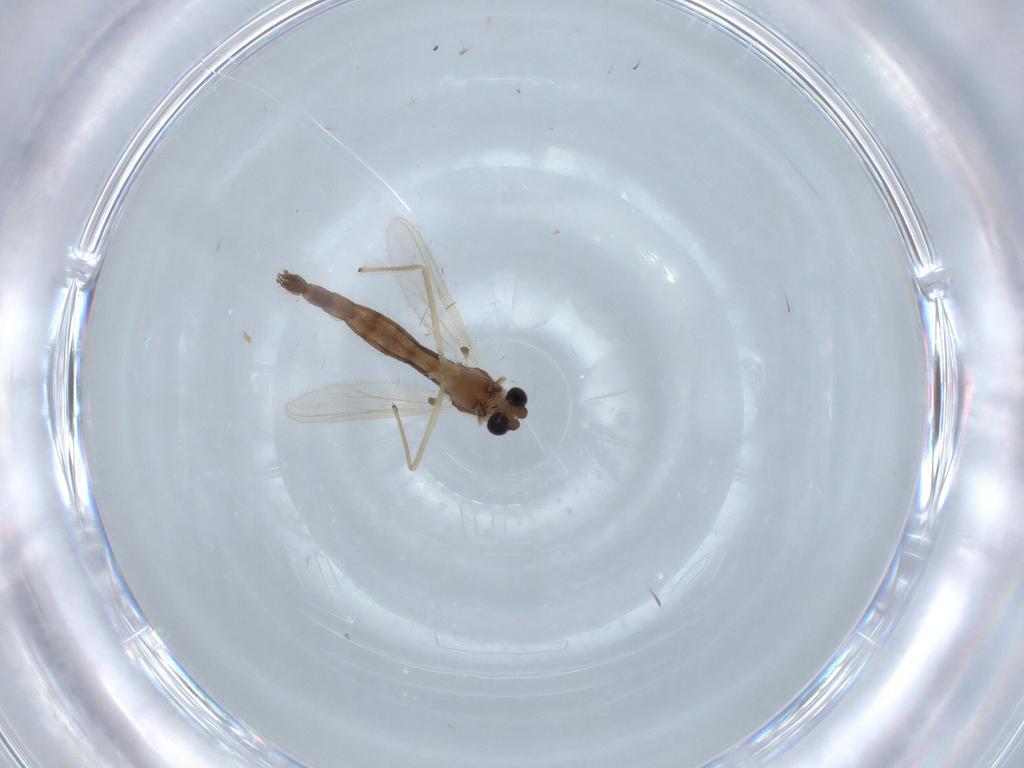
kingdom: Animalia
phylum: Arthropoda
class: Insecta
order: Diptera
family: Chironomidae
